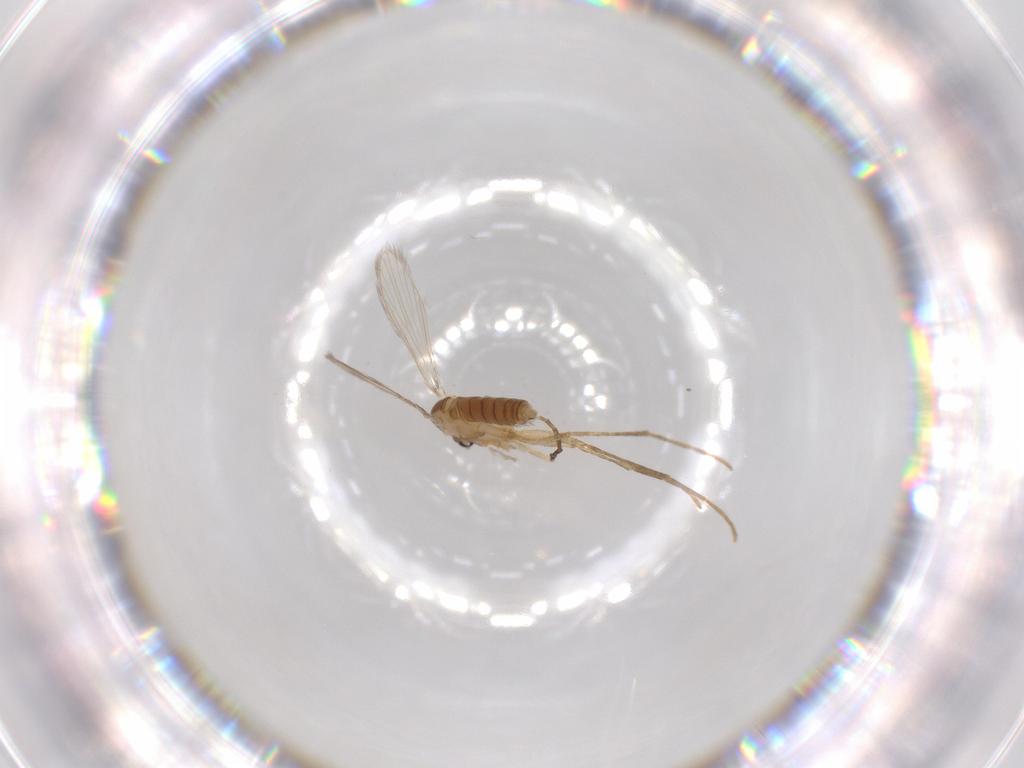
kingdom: Animalia
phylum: Arthropoda
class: Insecta
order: Diptera
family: Psychodidae
